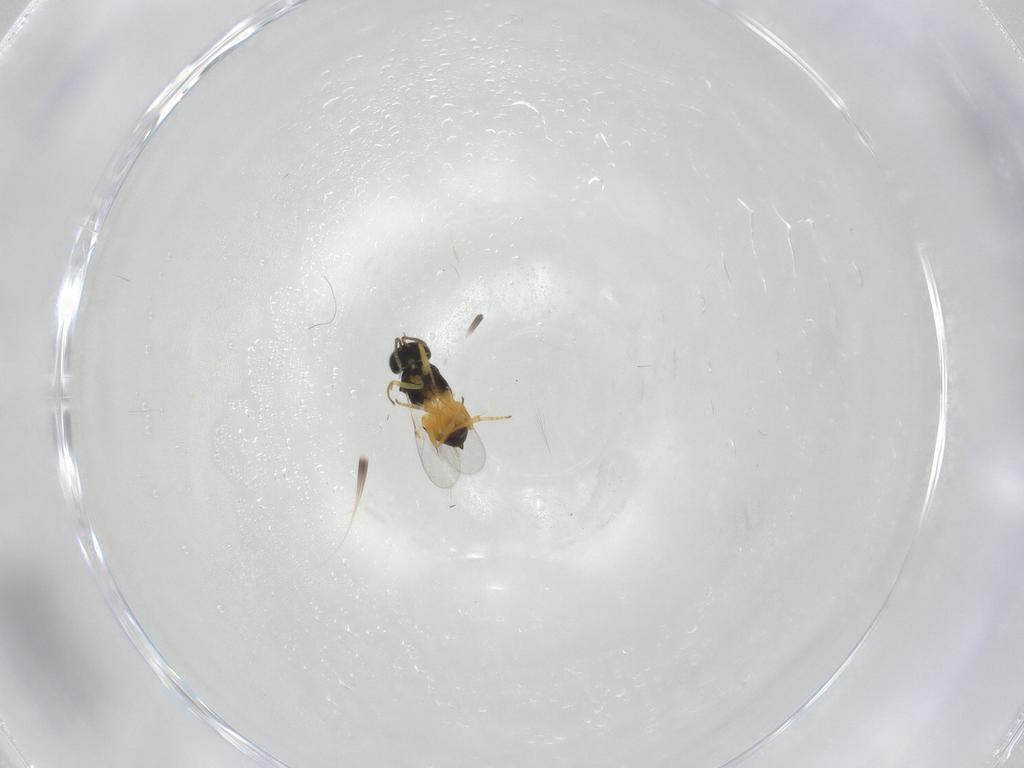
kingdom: Animalia
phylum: Arthropoda
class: Insecta
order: Hymenoptera
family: Encyrtidae
